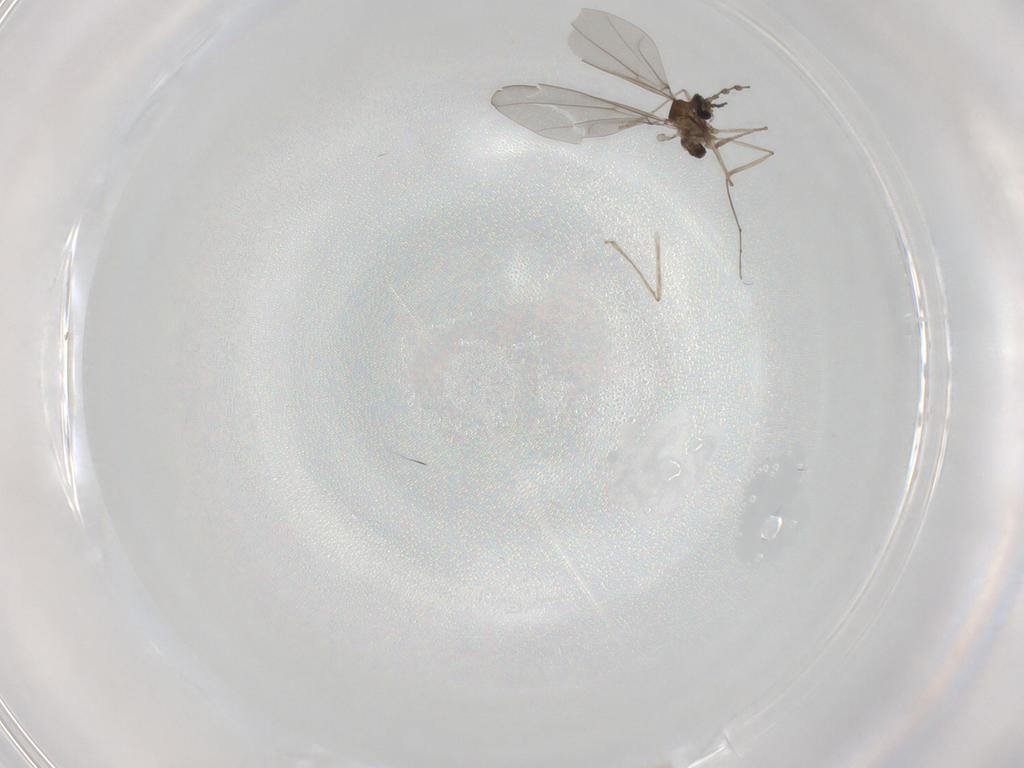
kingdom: Animalia
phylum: Arthropoda
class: Insecta
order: Diptera
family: Cecidomyiidae
